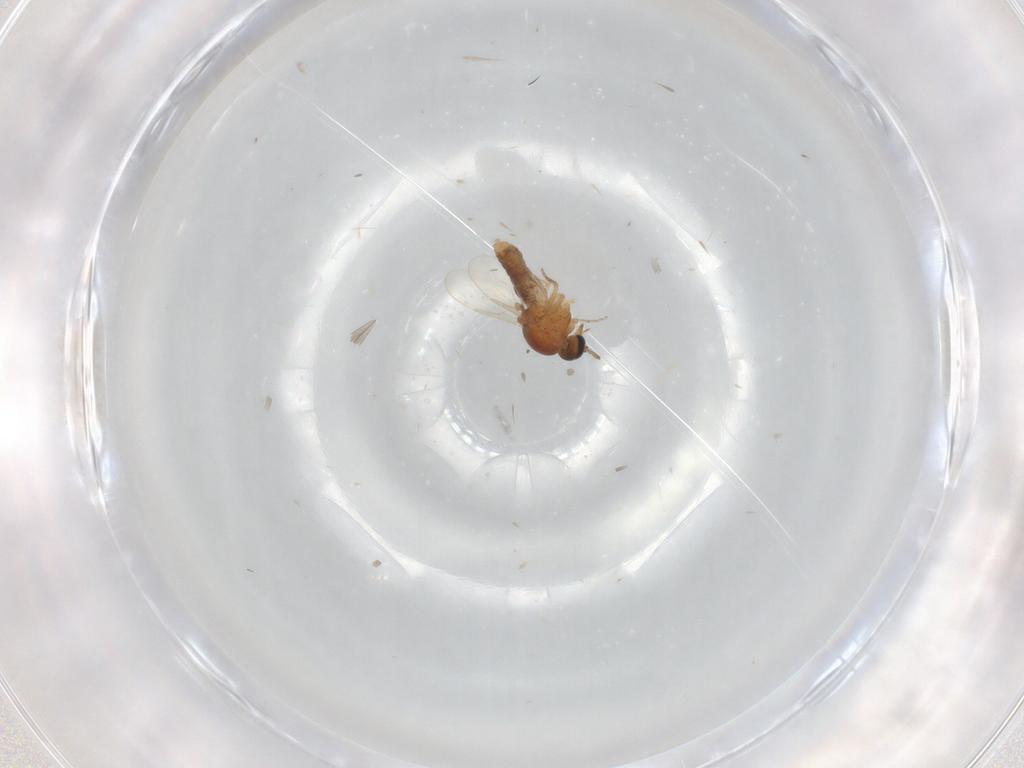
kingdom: Animalia
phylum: Arthropoda
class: Insecta
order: Diptera
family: Ceratopogonidae
